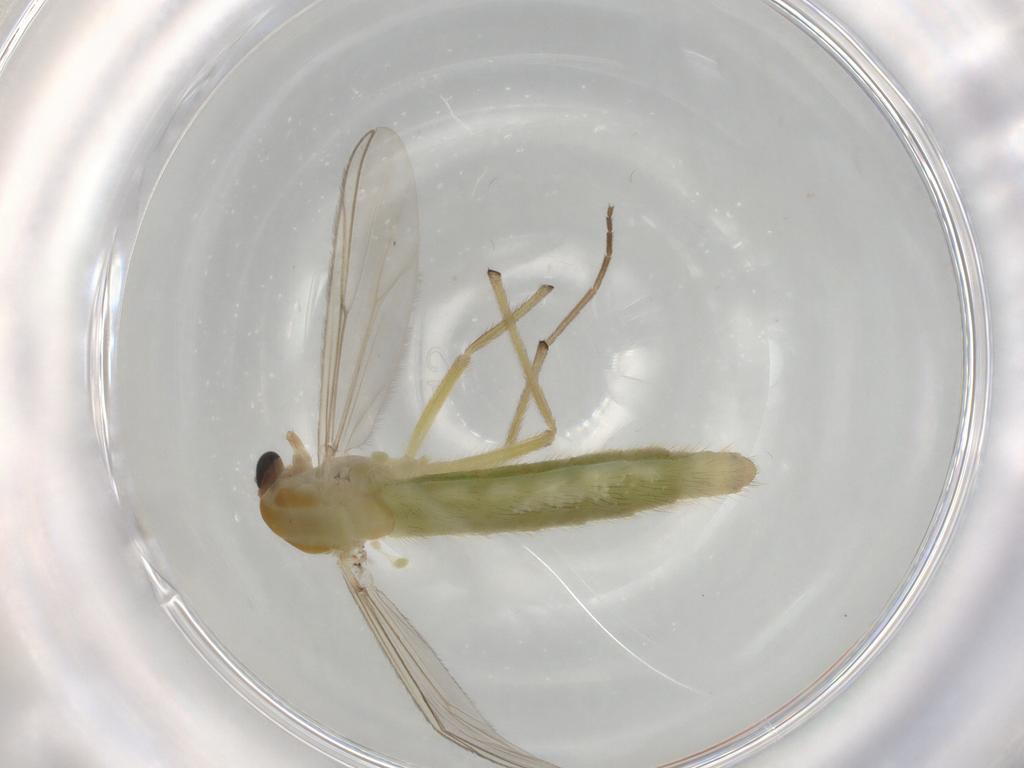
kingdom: Animalia
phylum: Arthropoda
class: Insecta
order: Diptera
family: Chironomidae
